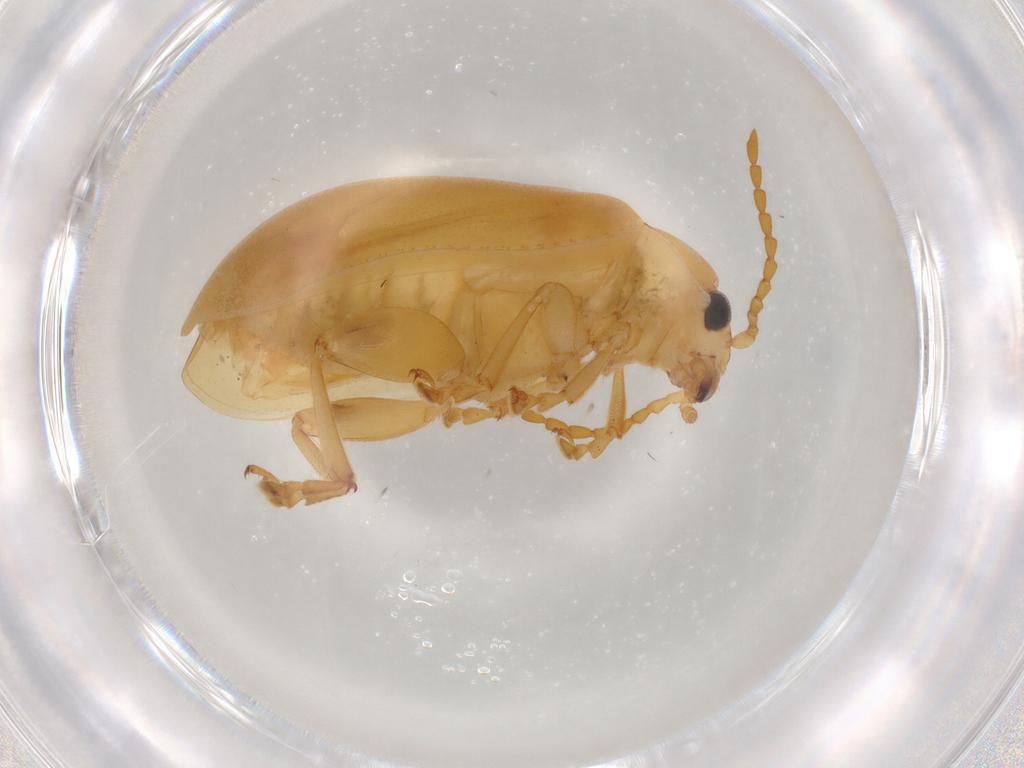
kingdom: Animalia
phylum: Arthropoda
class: Insecta
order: Coleoptera
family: Chrysomelidae
